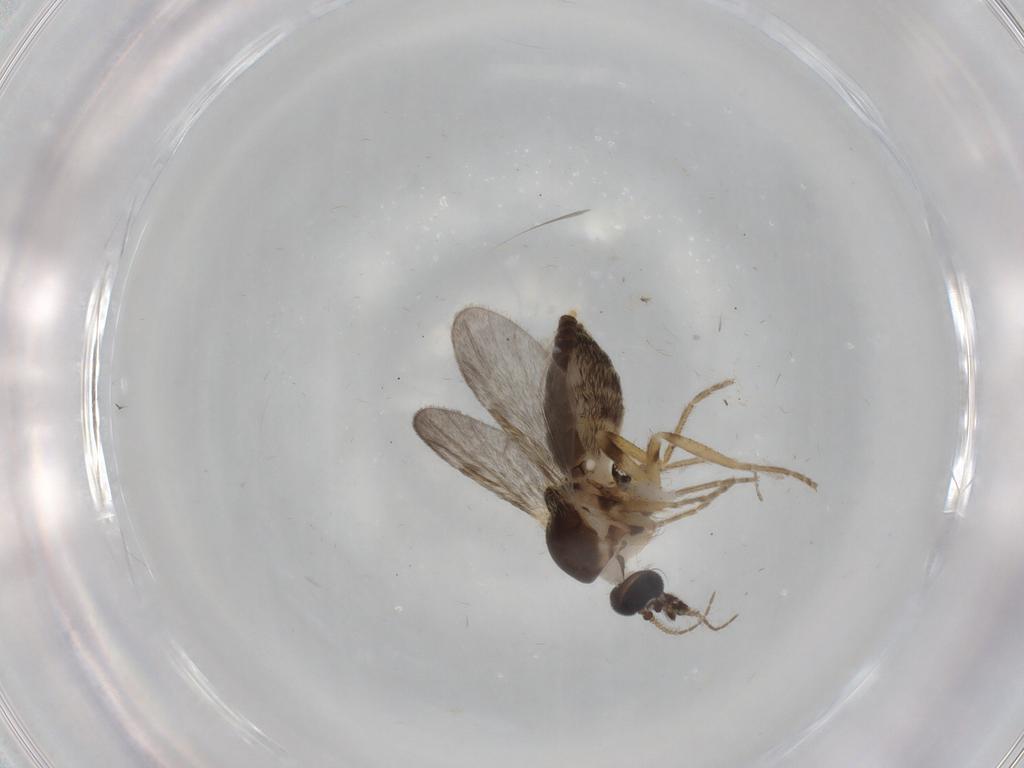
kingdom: Animalia
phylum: Arthropoda
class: Insecta
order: Diptera
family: Ceratopogonidae
